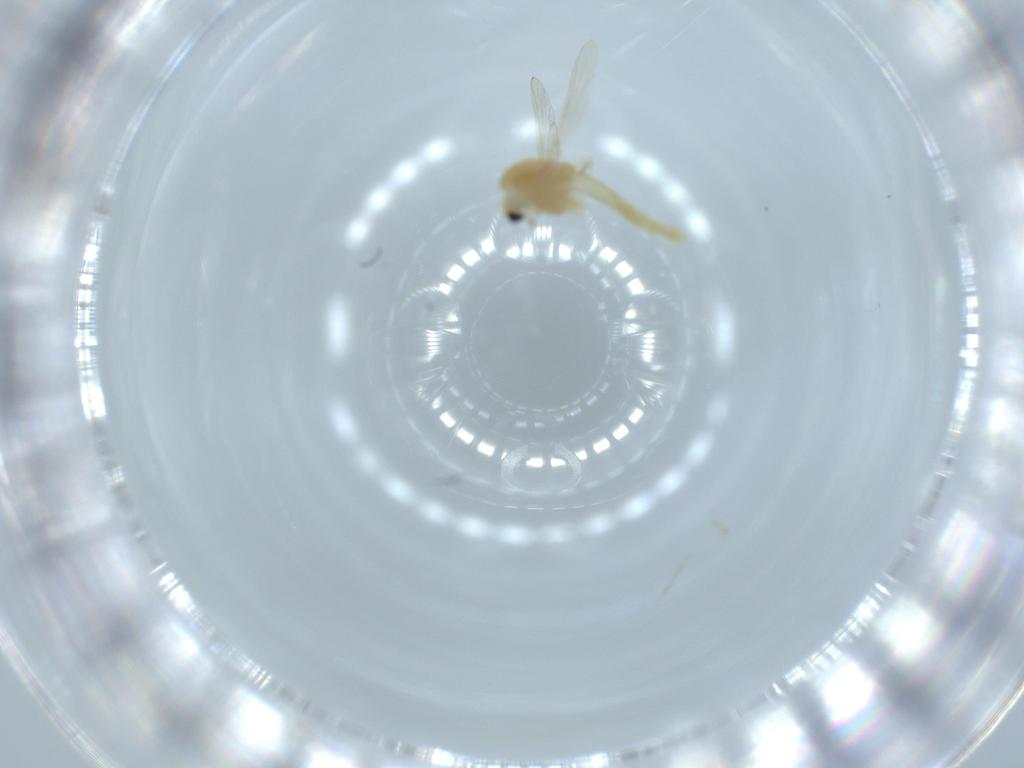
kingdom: Animalia
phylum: Arthropoda
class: Insecta
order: Diptera
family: Chironomidae
